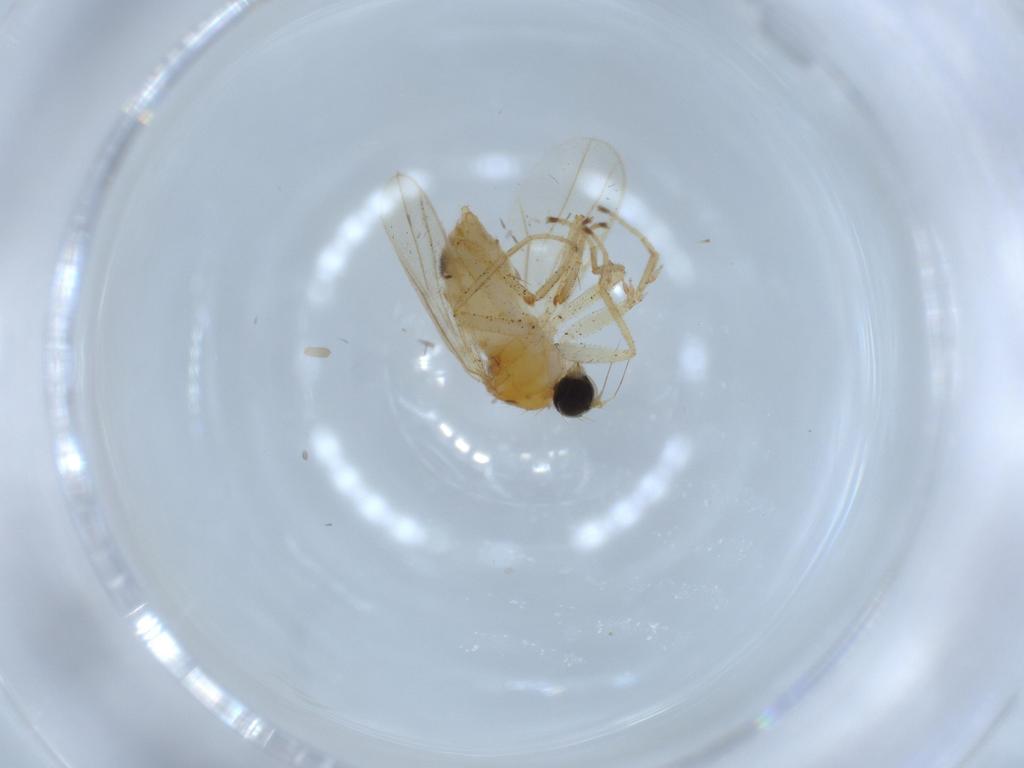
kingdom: Animalia
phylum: Arthropoda
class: Insecta
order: Diptera
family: Hybotidae
